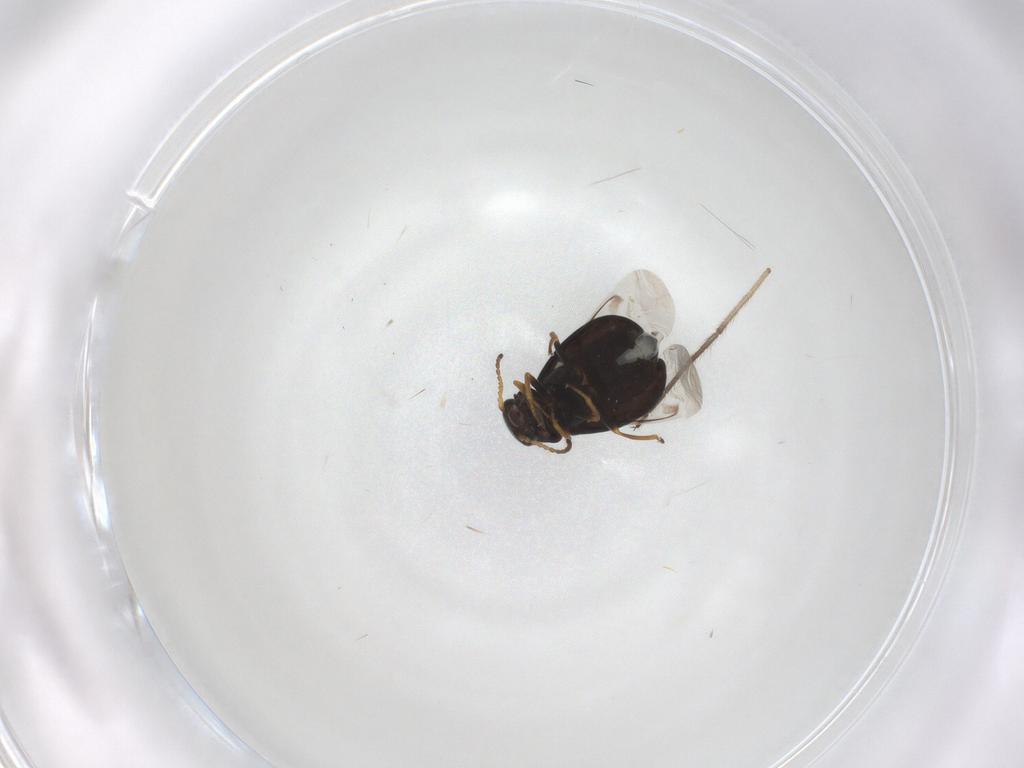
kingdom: Animalia
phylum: Arthropoda
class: Insecta
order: Coleoptera
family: Melyridae
